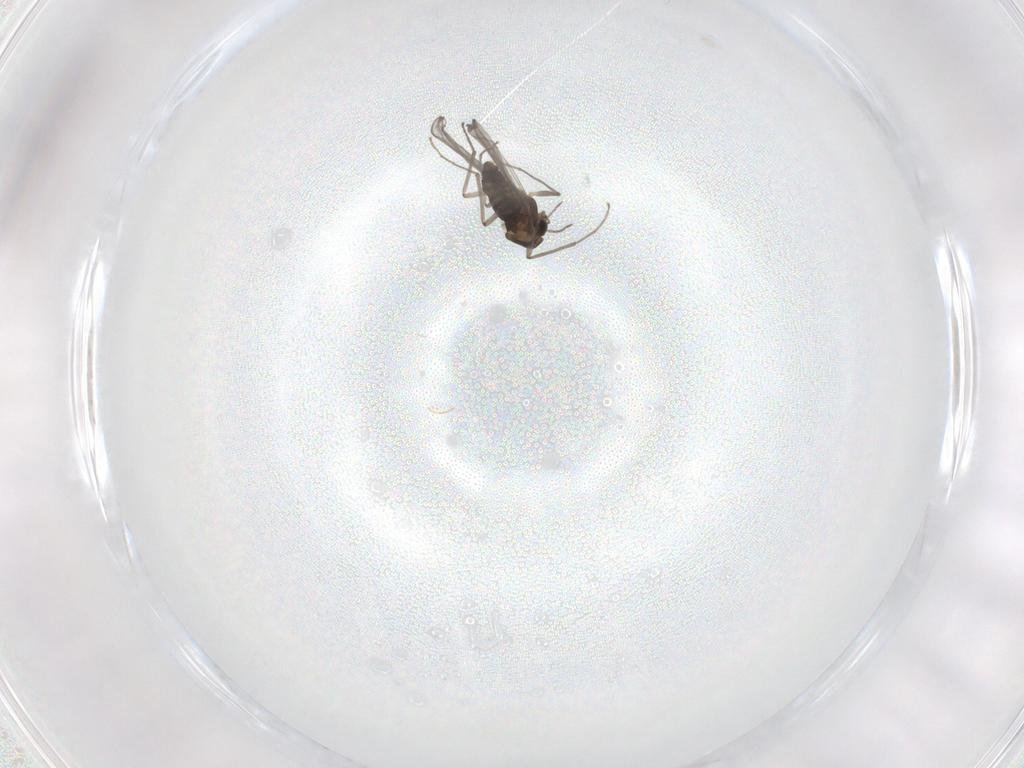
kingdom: Animalia
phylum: Arthropoda
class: Insecta
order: Diptera
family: Chironomidae
